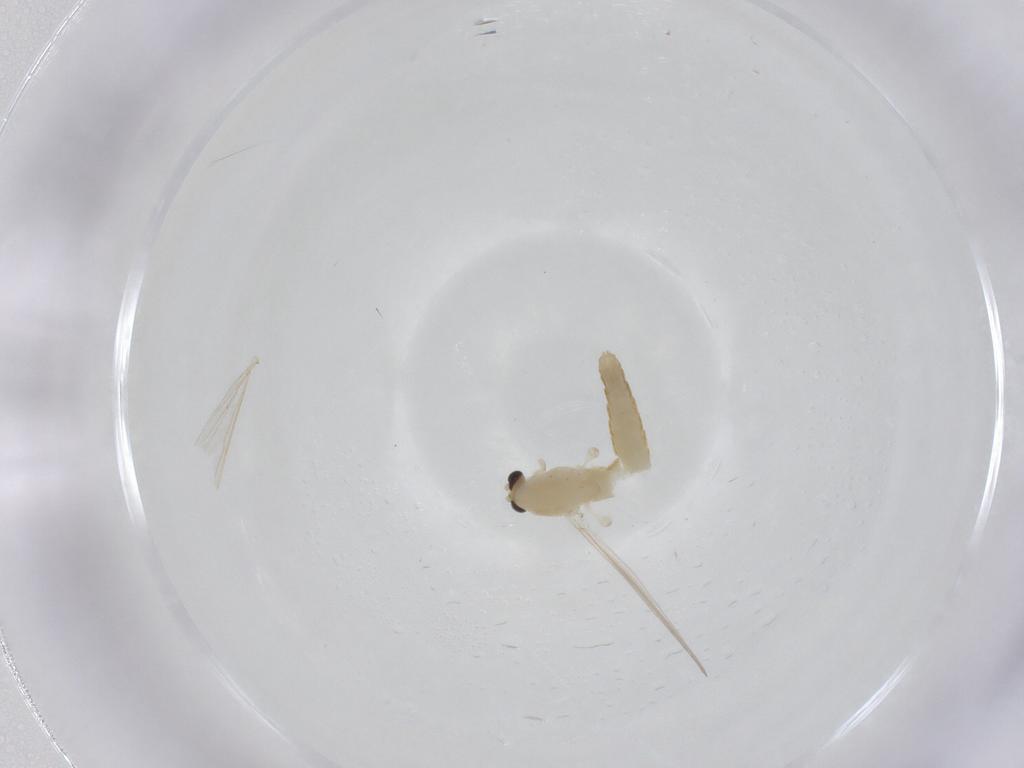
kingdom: Animalia
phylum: Arthropoda
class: Insecta
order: Diptera
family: Chironomidae
